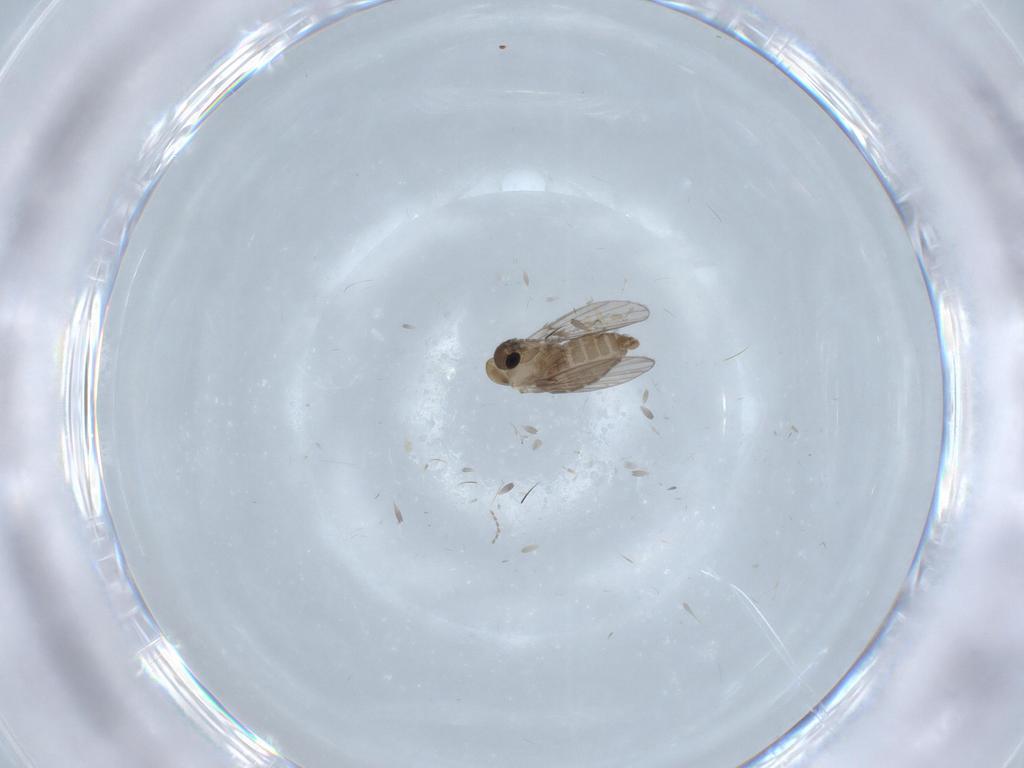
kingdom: Animalia
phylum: Arthropoda
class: Insecta
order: Diptera
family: Psychodidae
